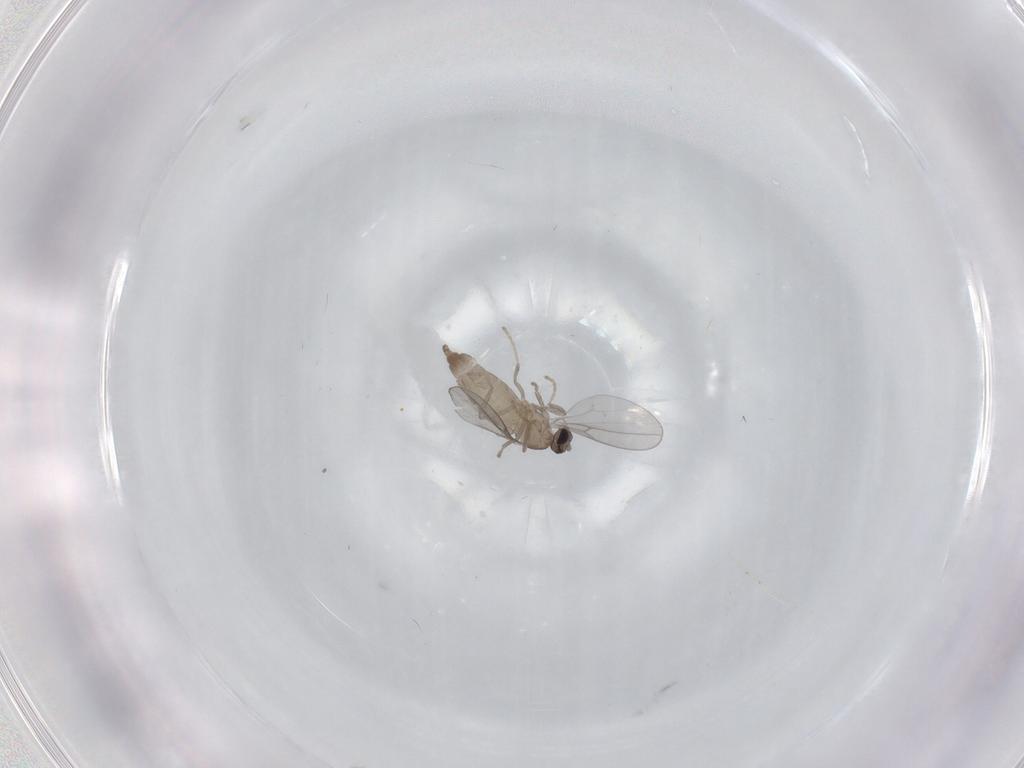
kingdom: Animalia
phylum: Arthropoda
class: Insecta
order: Diptera
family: Cecidomyiidae
